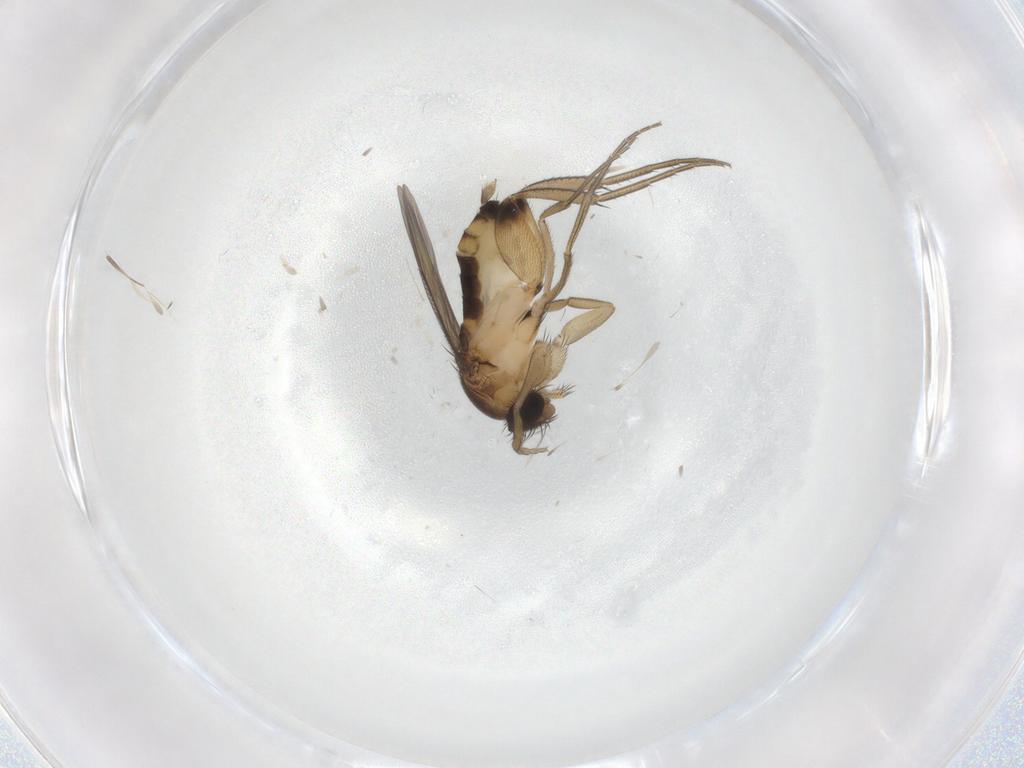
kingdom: Animalia
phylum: Arthropoda
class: Insecta
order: Diptera
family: Phoridae
